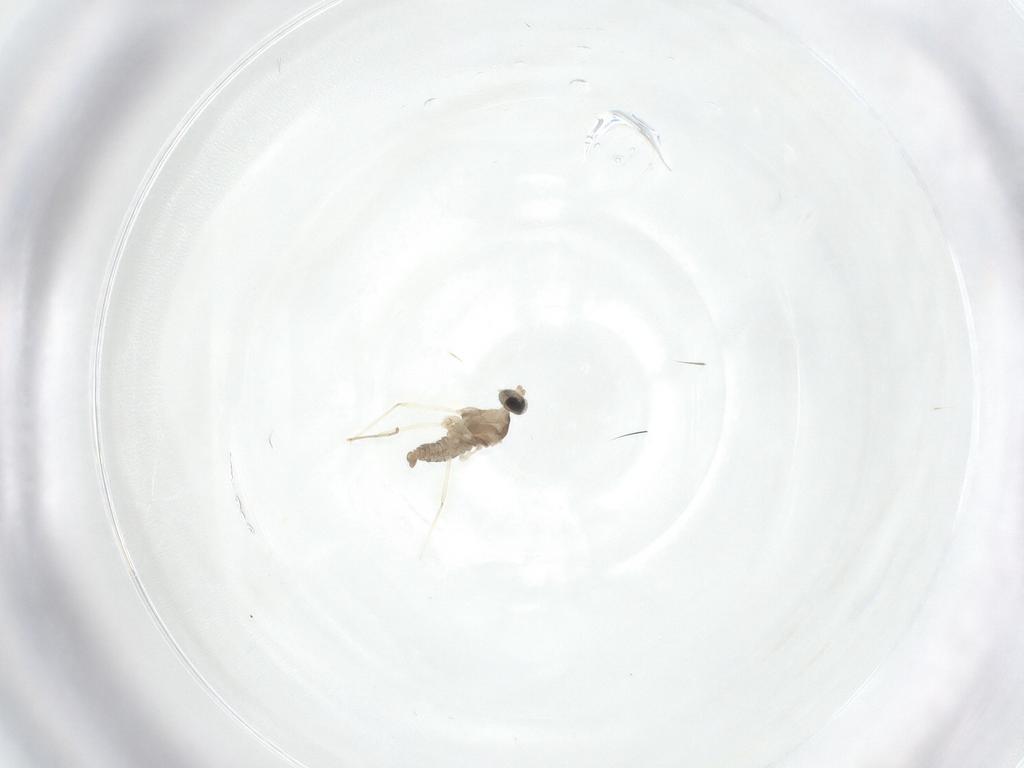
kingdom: Animalia
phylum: Arthropoda
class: Insecta
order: Diptera
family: Cecidomyiidae
